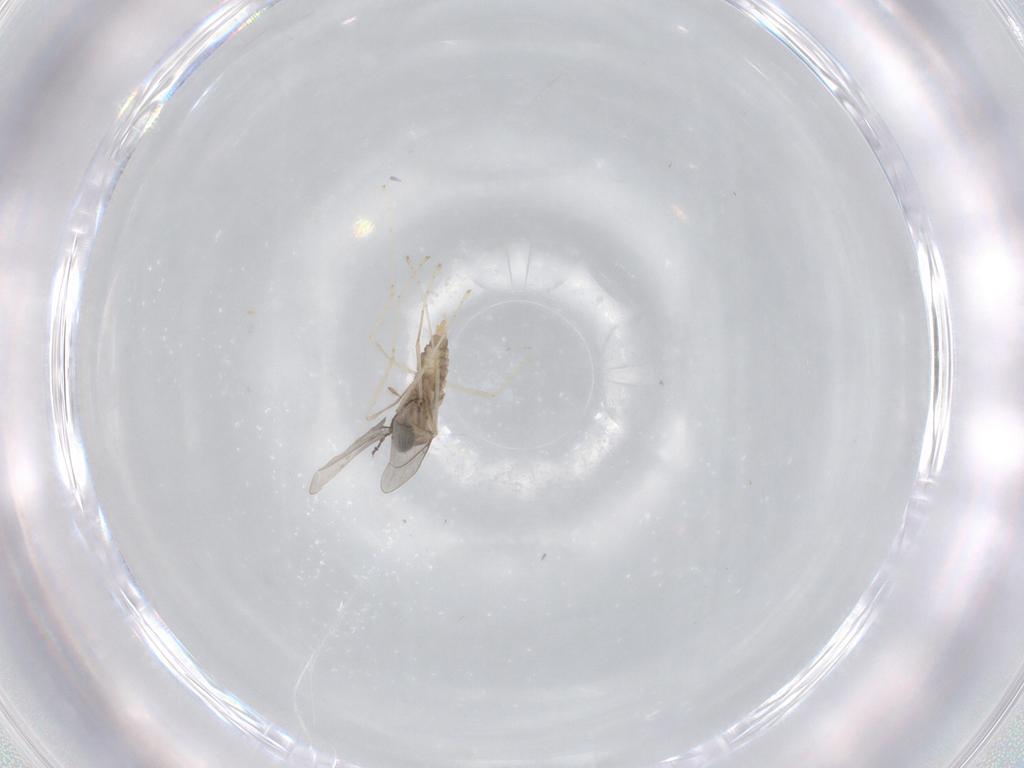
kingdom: Animalia
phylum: Arthropoda
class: Insecta
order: Diptera
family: Cecidomyiidae
